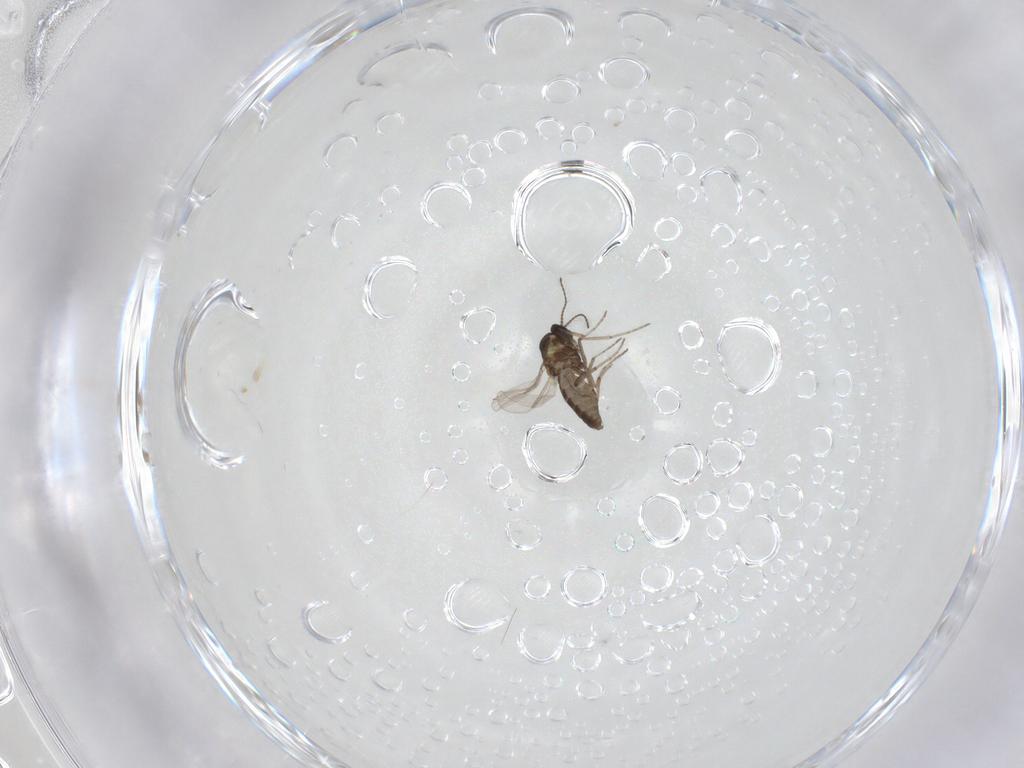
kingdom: Animalia
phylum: Arthropoda
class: Insecta
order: Diptera
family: Ceratopogonidae
